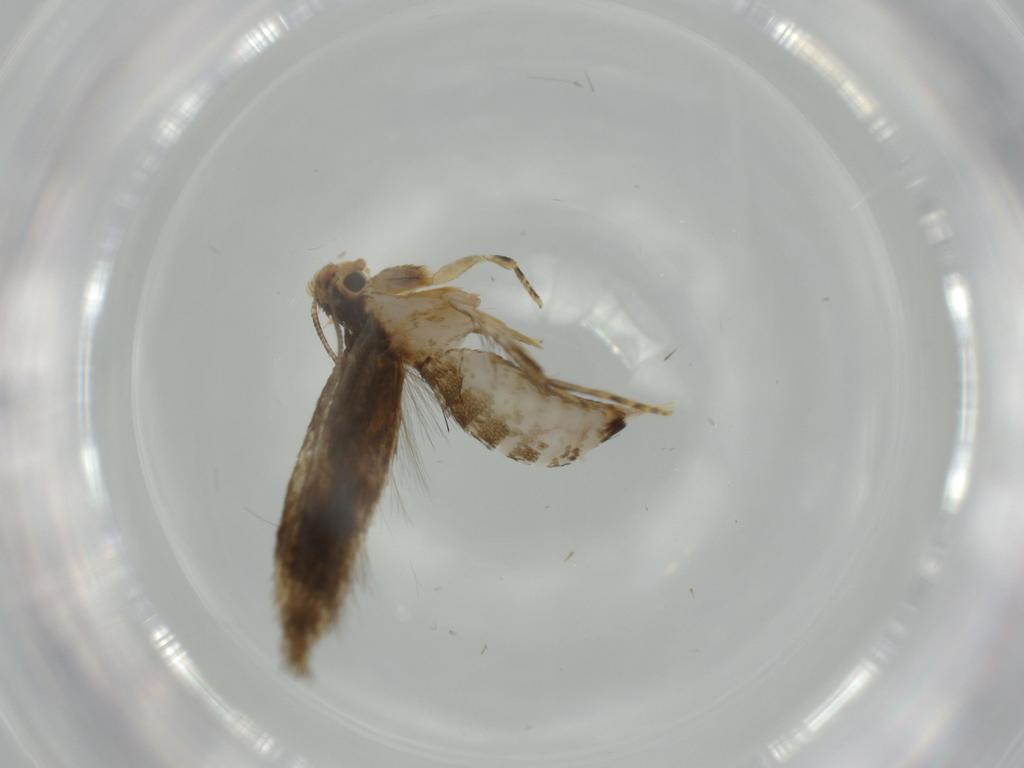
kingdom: Animalia
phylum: Arthropoda
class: Insecta
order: Lepidoptera
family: Tineidae
